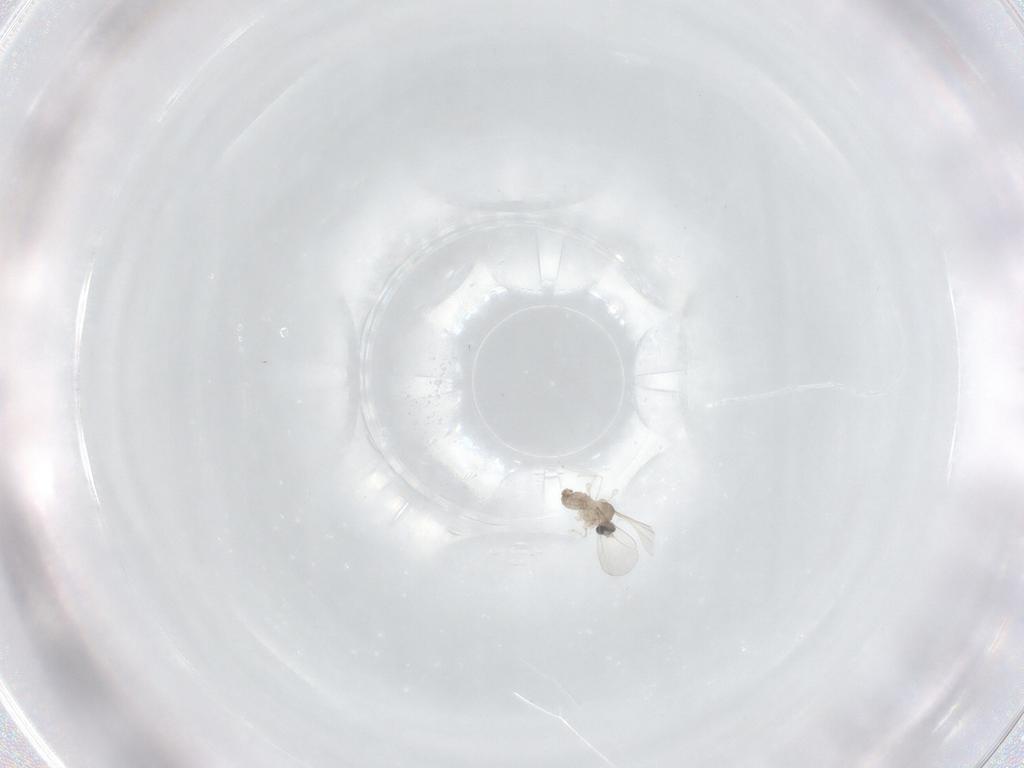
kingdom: Animalia
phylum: Arthropoda
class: Insecta
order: Diptera
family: Cecidomyiidae
